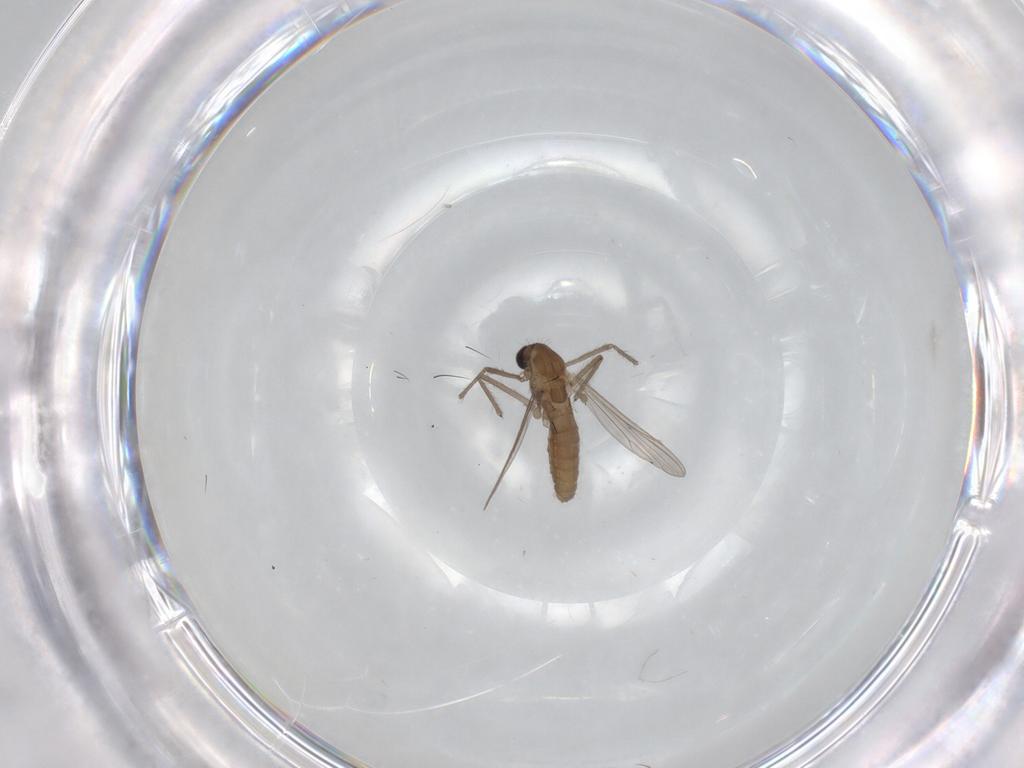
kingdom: Animalia
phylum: Arthropoda
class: Insecta
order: Diptera
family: Chironomidae
